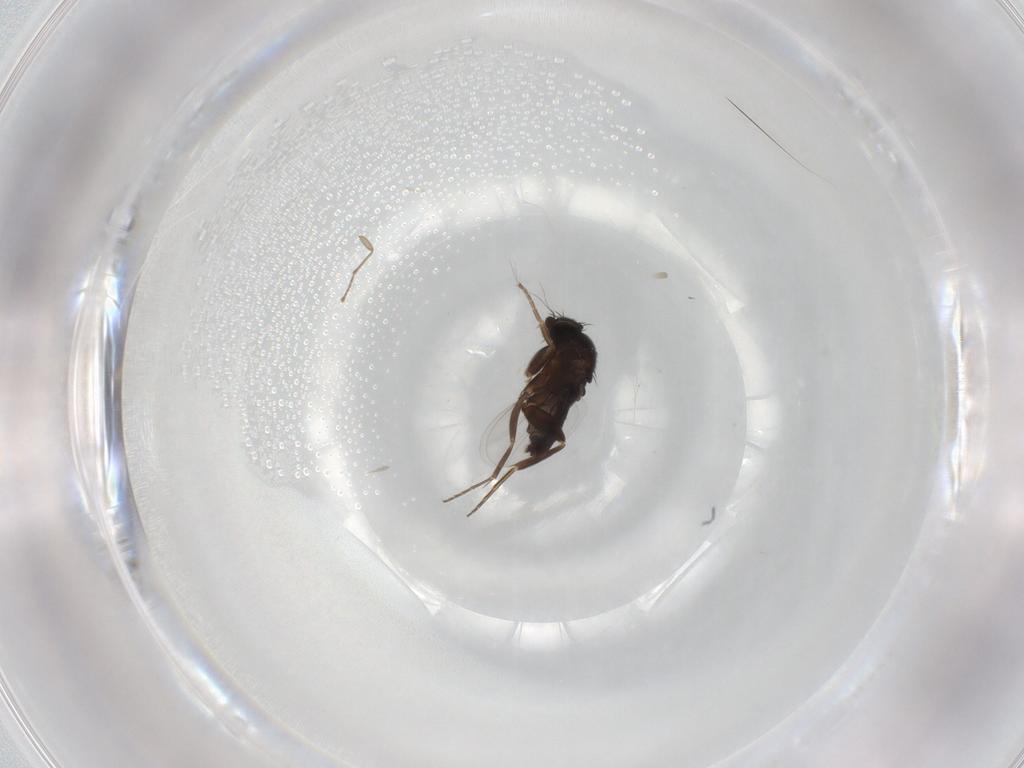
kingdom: Animalia
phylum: Arthropoda
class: Insecta
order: Diptera
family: Phoridae
